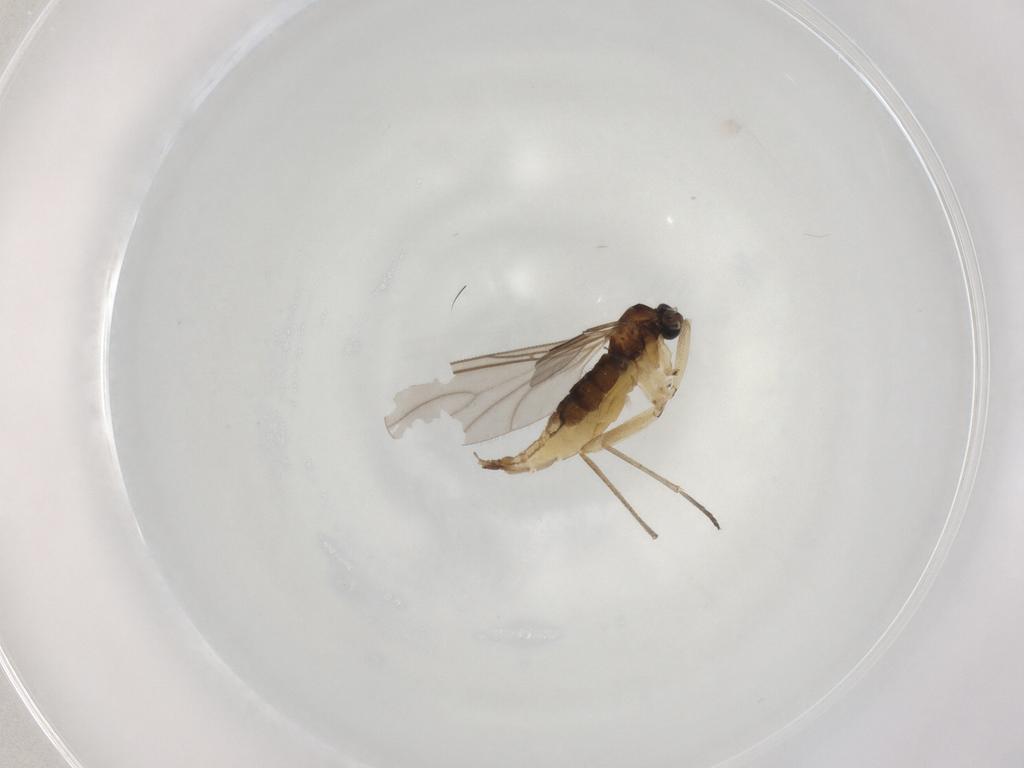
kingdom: Animalia
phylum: Arthropoda
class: Insecta
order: Diptera
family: Sciaridae
